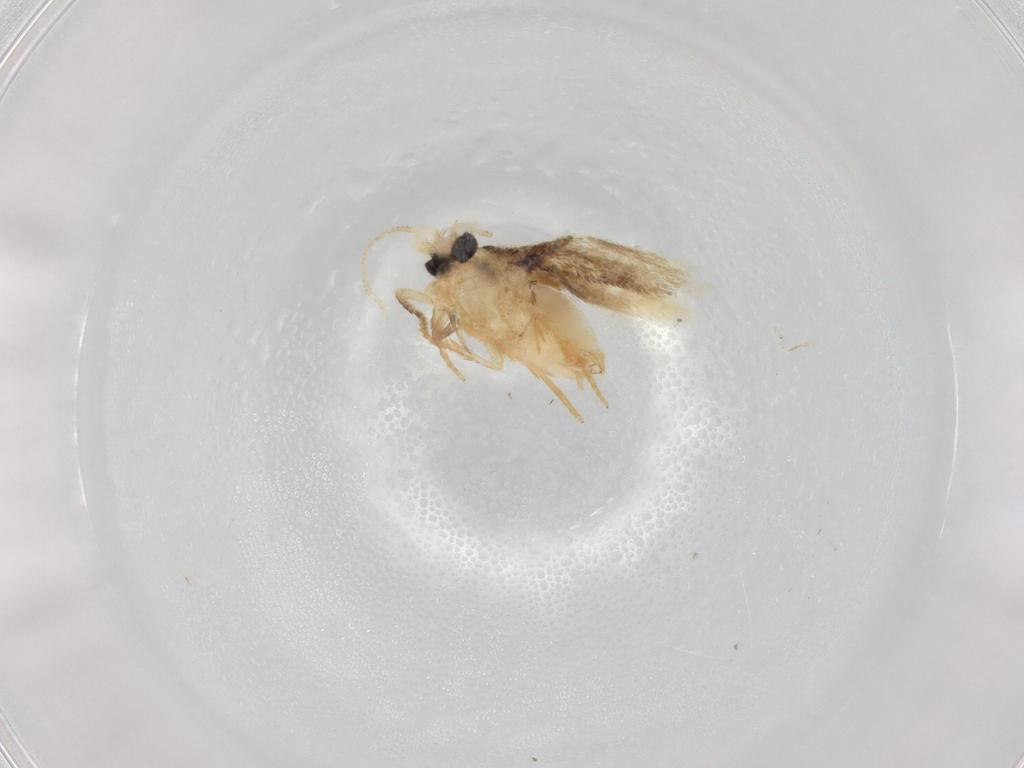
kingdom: Animalia
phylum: Arthropoda
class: Insecta
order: Lepidoptera
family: Nepticulidae
